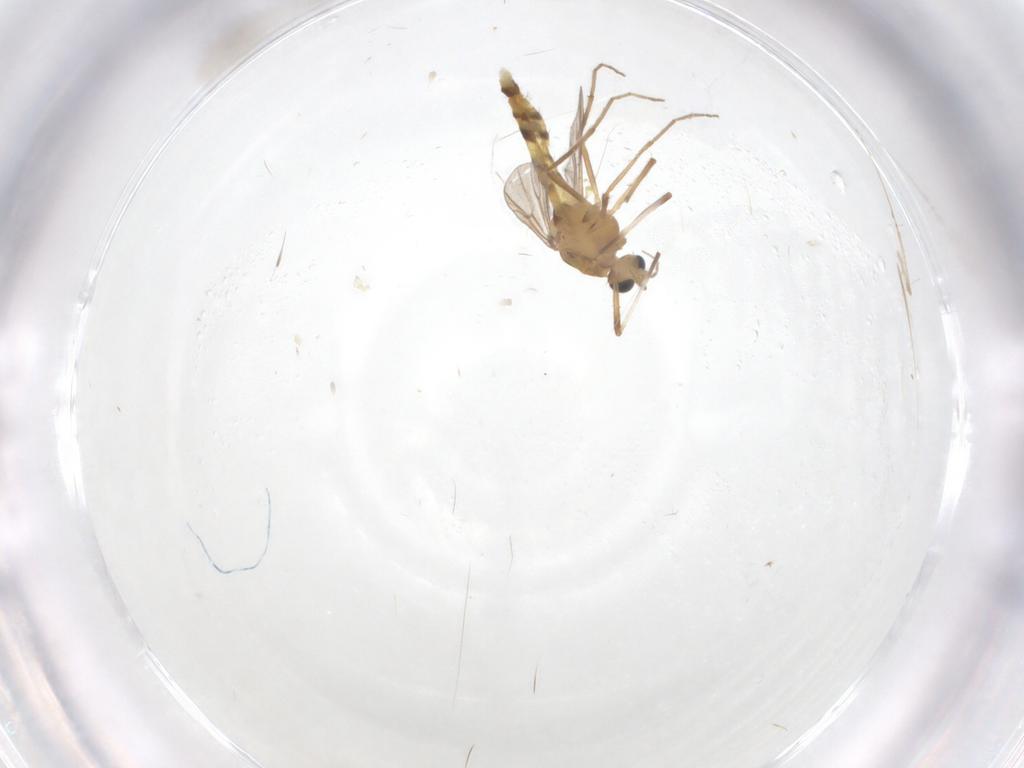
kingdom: Animalia
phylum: Arthropoda
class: Insecta
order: Diptera
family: Chironomidae
